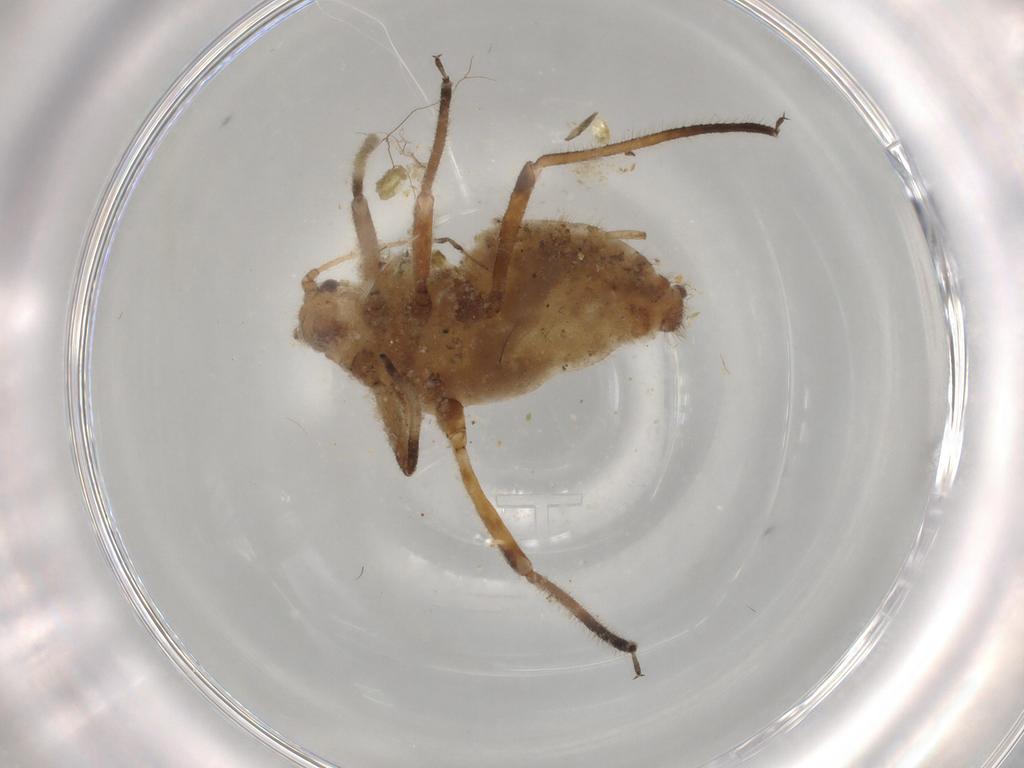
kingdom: Animalia
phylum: Arthropoda
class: Insecta
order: Hemiptera
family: Aphididae
